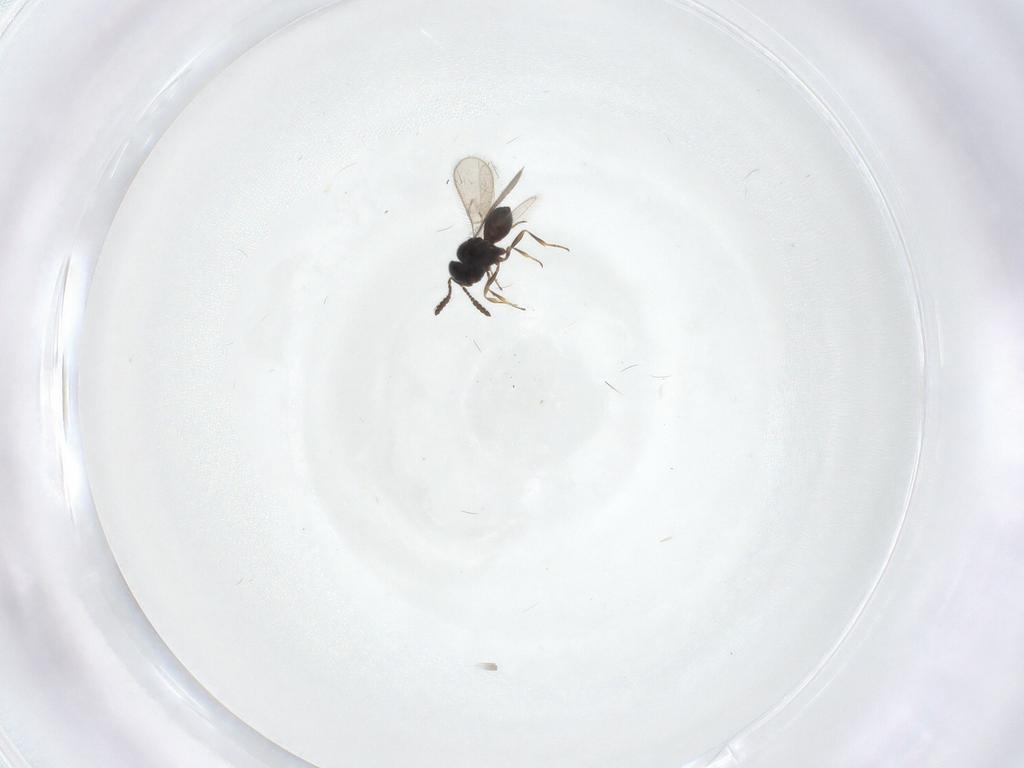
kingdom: Animalia
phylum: Arthropoda
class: Insecta
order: Hymenoptera
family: Scelionidae
